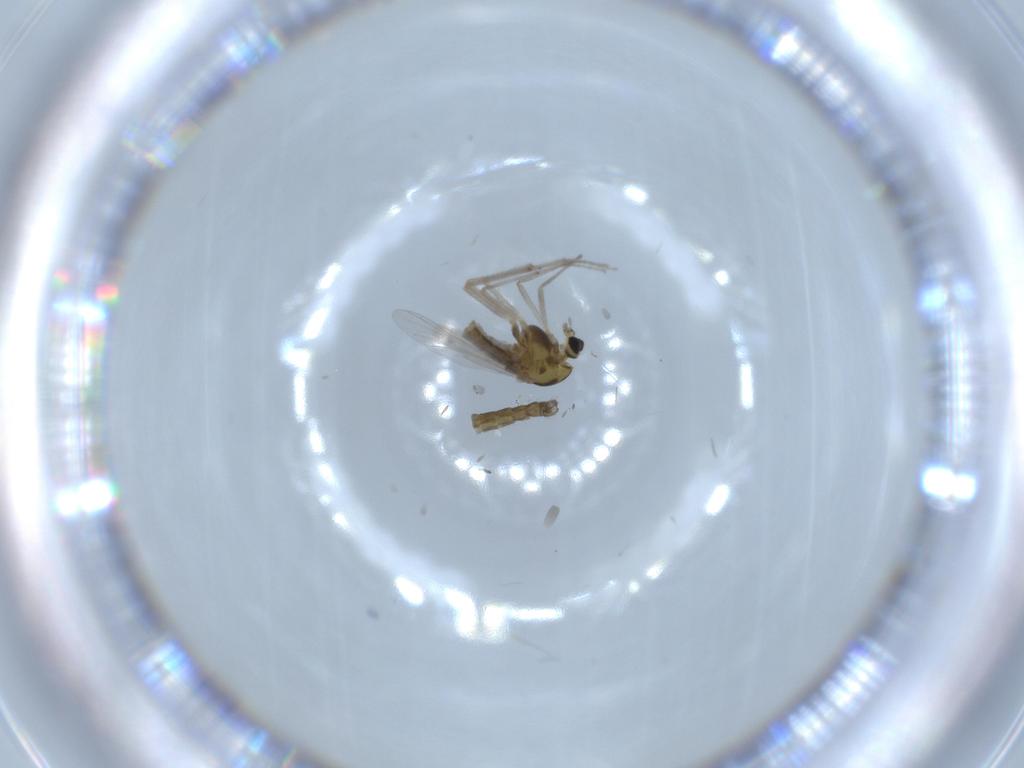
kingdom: Animalia
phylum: Arthropoda
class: Insecta
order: Diptera
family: Chironomidae
